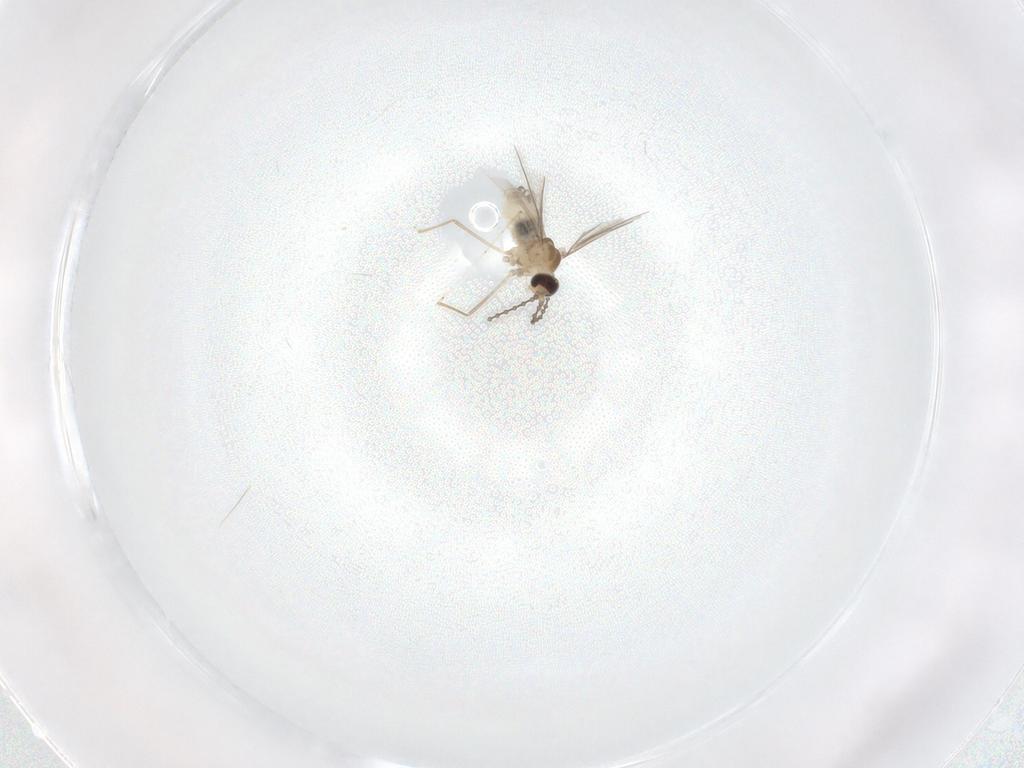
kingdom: Animalia
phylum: Arthropoda
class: Insecta
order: Diptera
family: Cecidomyiidae
